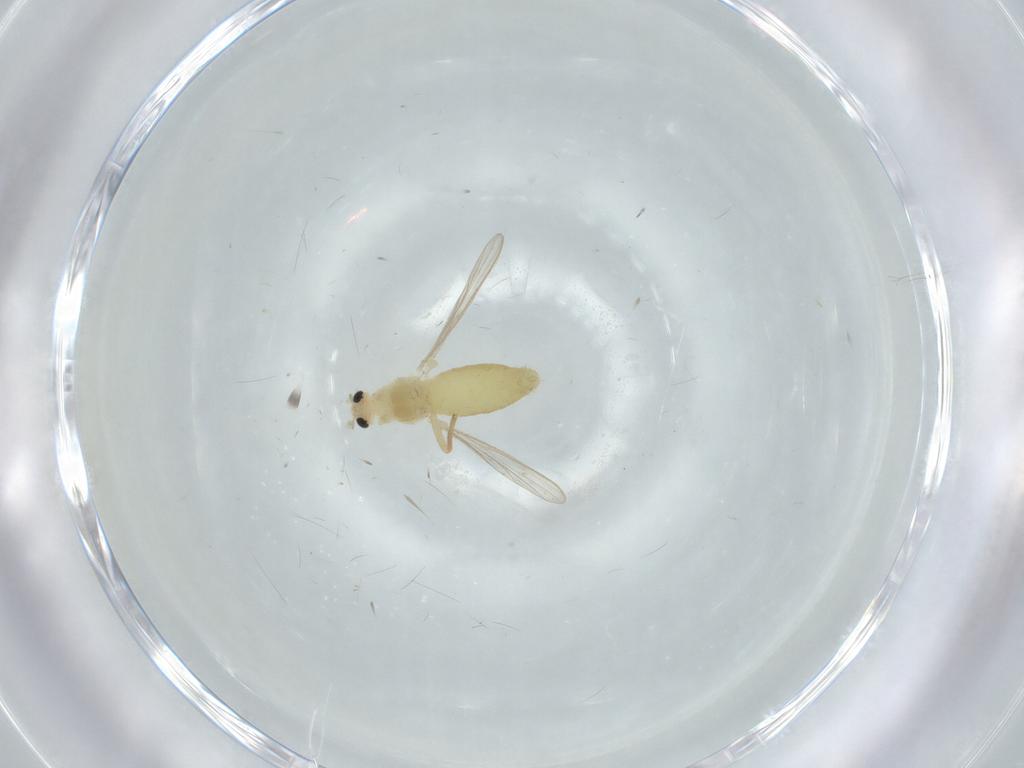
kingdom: Animalia
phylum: Arthropoda
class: Insecta
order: Diptera
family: Chironomidae
